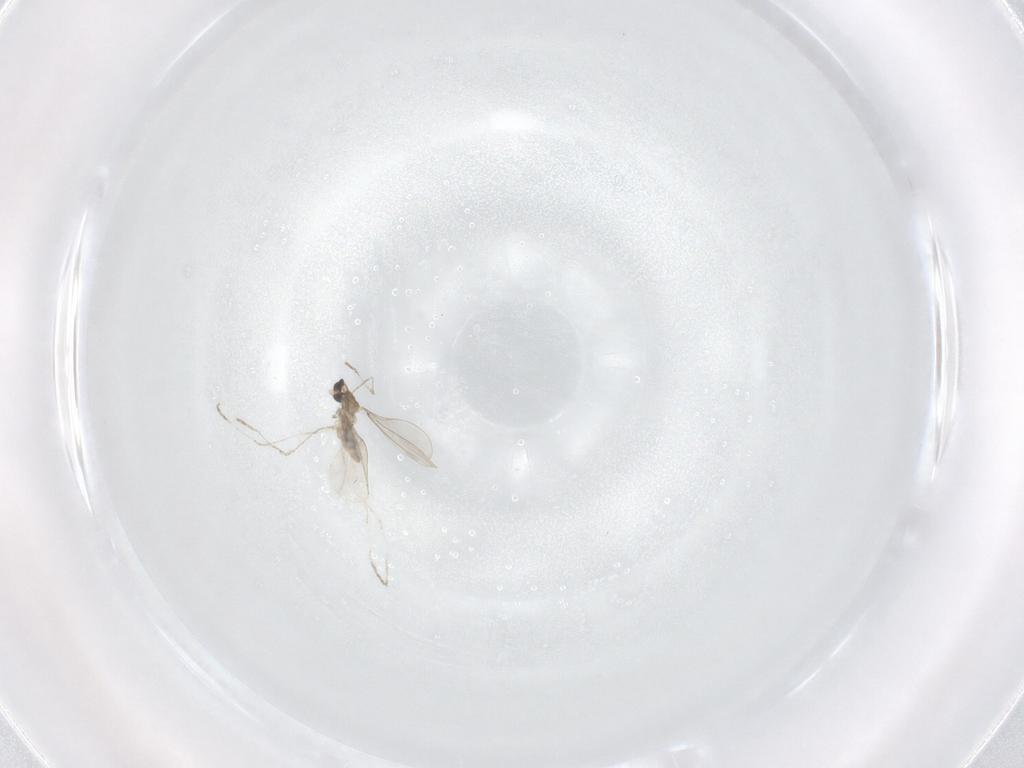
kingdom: Animalia
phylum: Arthropoda
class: Insecta
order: Diptera
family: Cecidomyiidae
